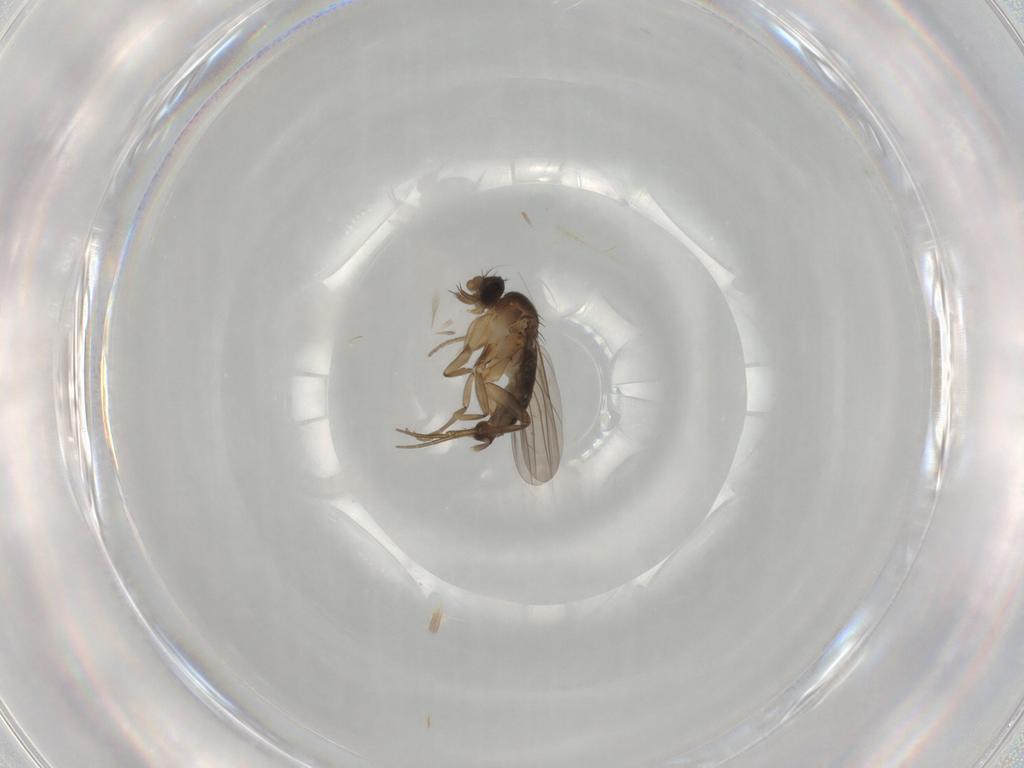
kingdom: Animalia
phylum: Arthropoda
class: Insecta
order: Diptera
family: Phoridae
